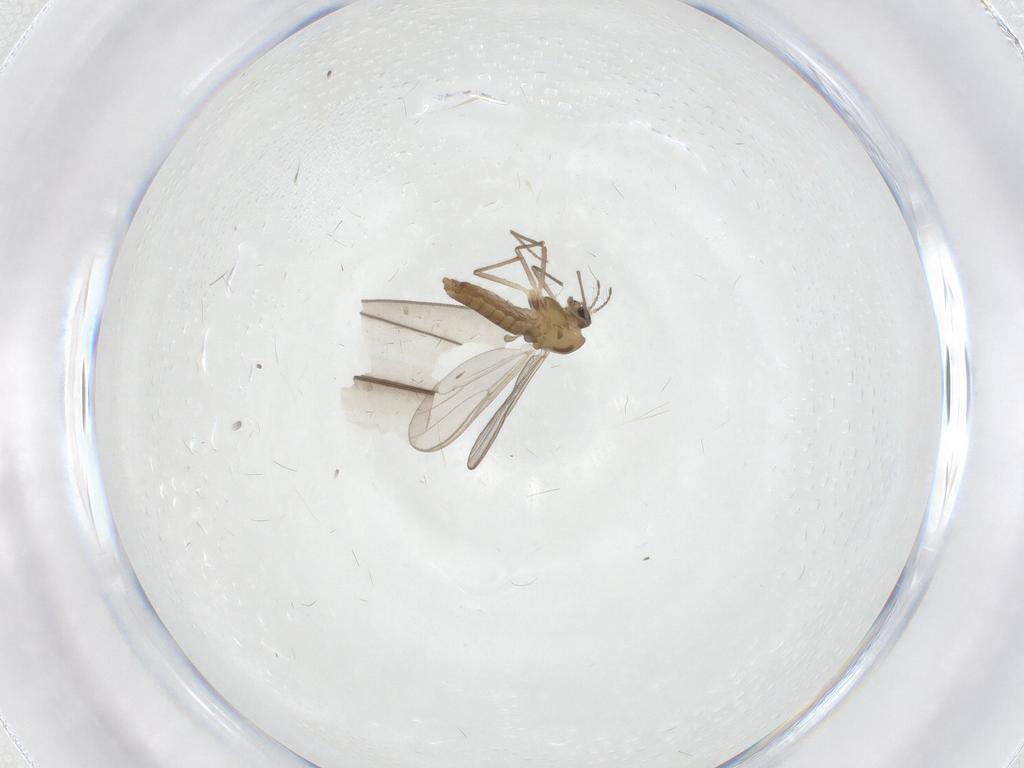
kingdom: Animalia
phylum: Arthropoda
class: Insecta
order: Diptera
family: Chironomidae
